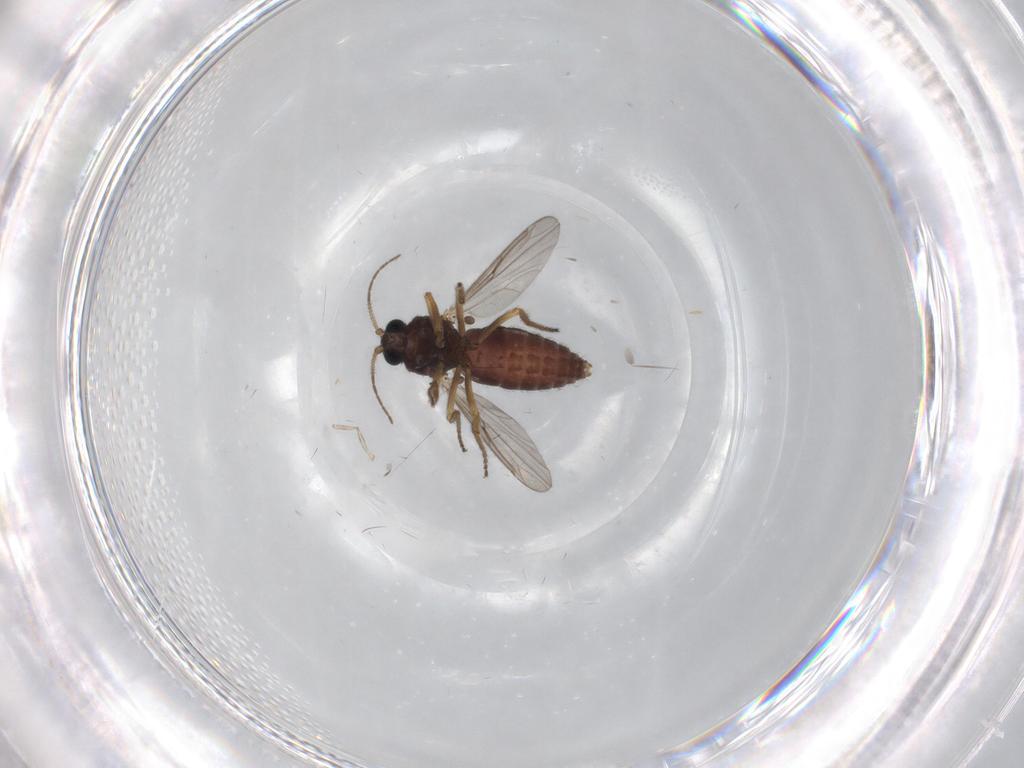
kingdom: Animalia
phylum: Arthropoda
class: Insecta
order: Diptera
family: Ceratopogonidae
